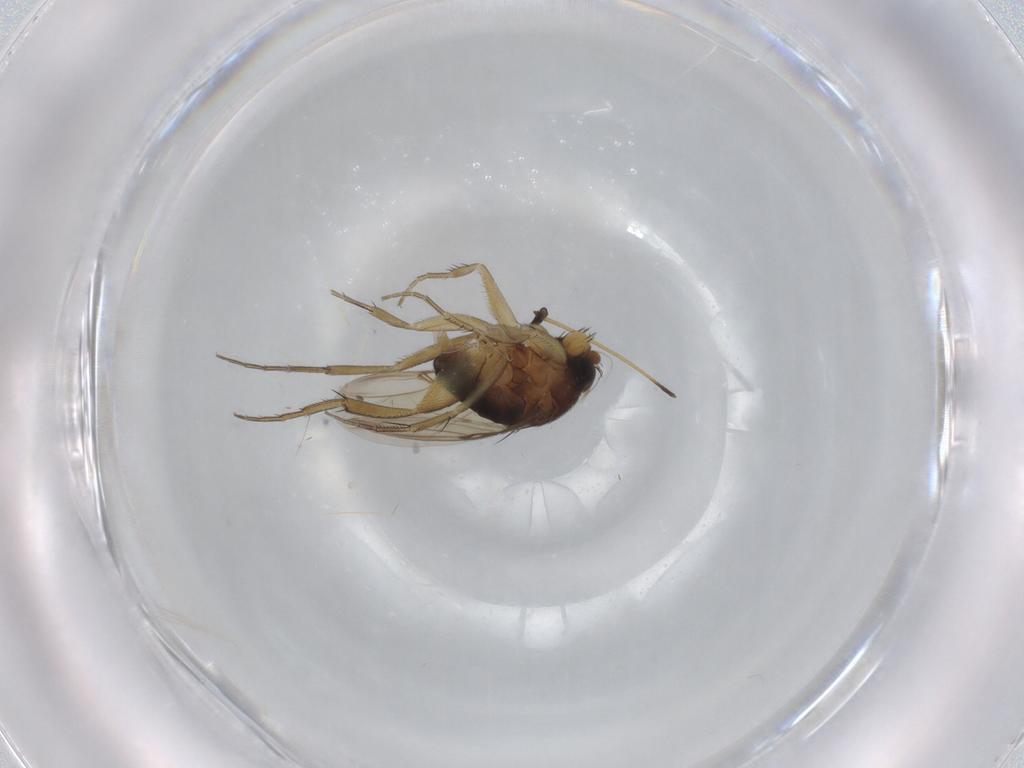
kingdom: Animalia
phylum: Arthropoda
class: Insecta
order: Diptera
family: Phoridae
